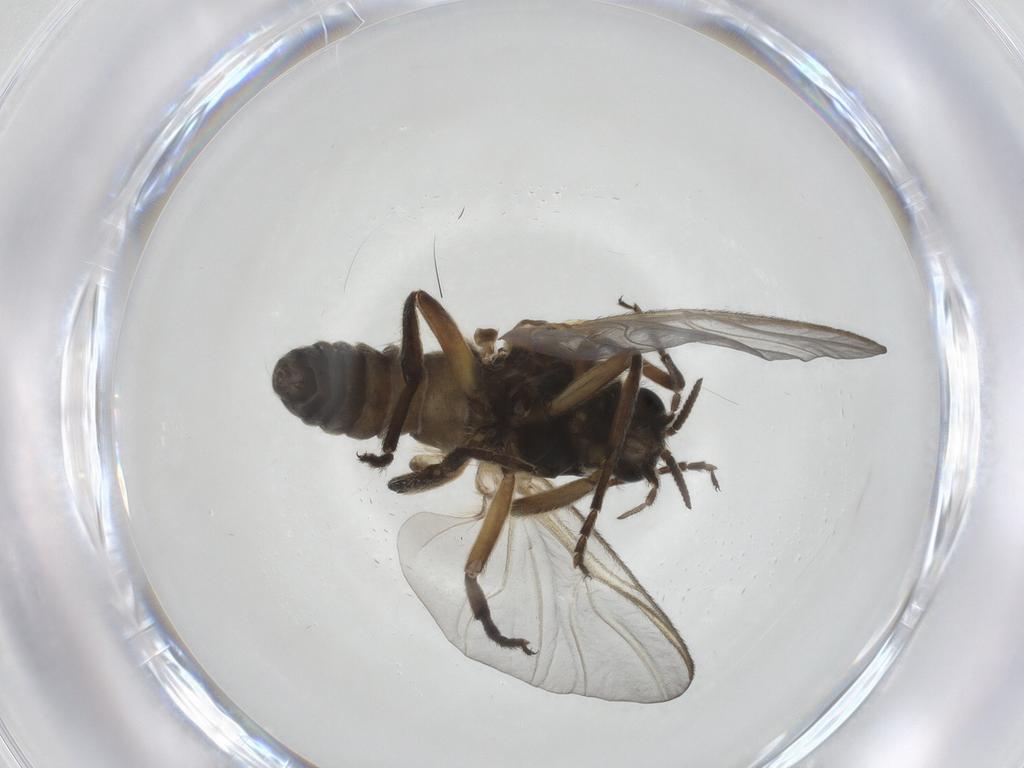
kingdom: Animalia
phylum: Arthropoda
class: Insecta
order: Diptera
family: Simuliidae
